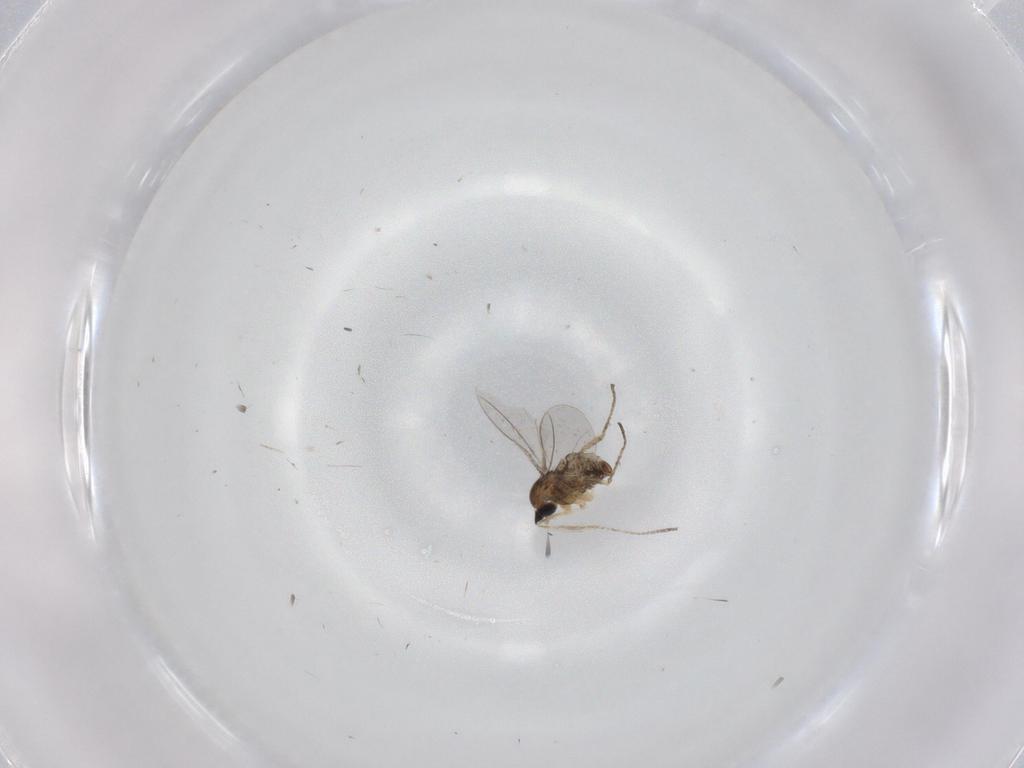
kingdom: Animalia
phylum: Arthropoda
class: Insecta
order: Diptera
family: Cecidomyiidae
